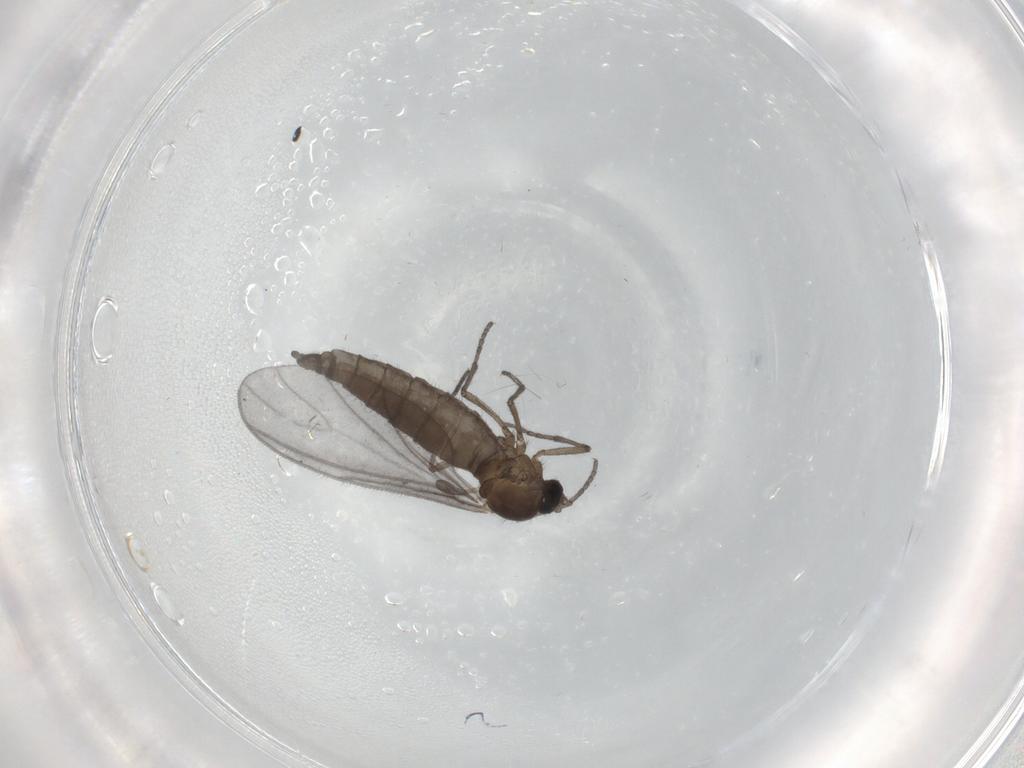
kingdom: Animalia
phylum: Arthropoda
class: Insecta
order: Diptera
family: Sciaridae
